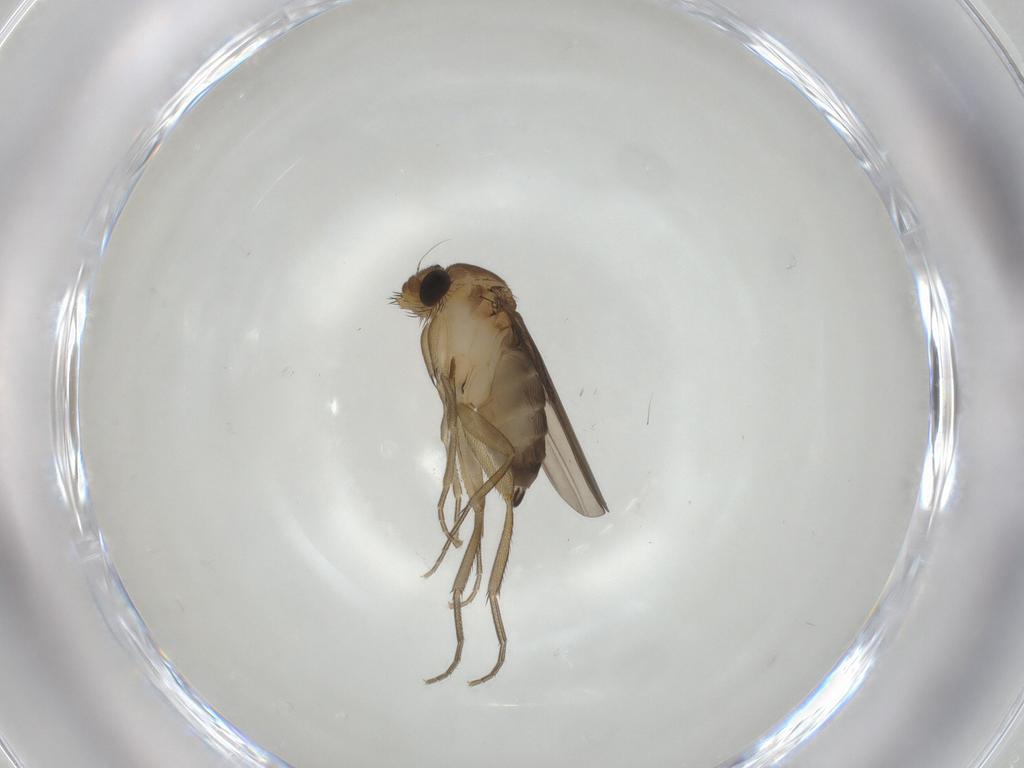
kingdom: Animalia
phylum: Arthropoda
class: Insecta
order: Diptera
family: Phoridae
